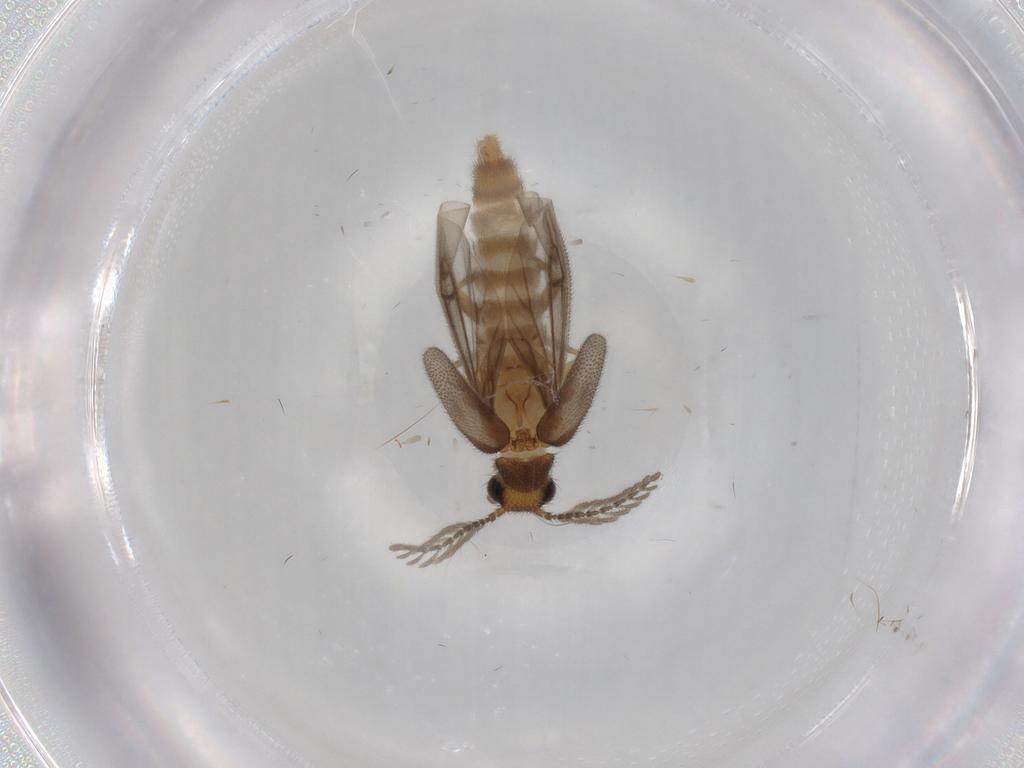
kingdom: Animalia
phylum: Arthropoda
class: Insecta
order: Coleoptera
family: Phengodidae
